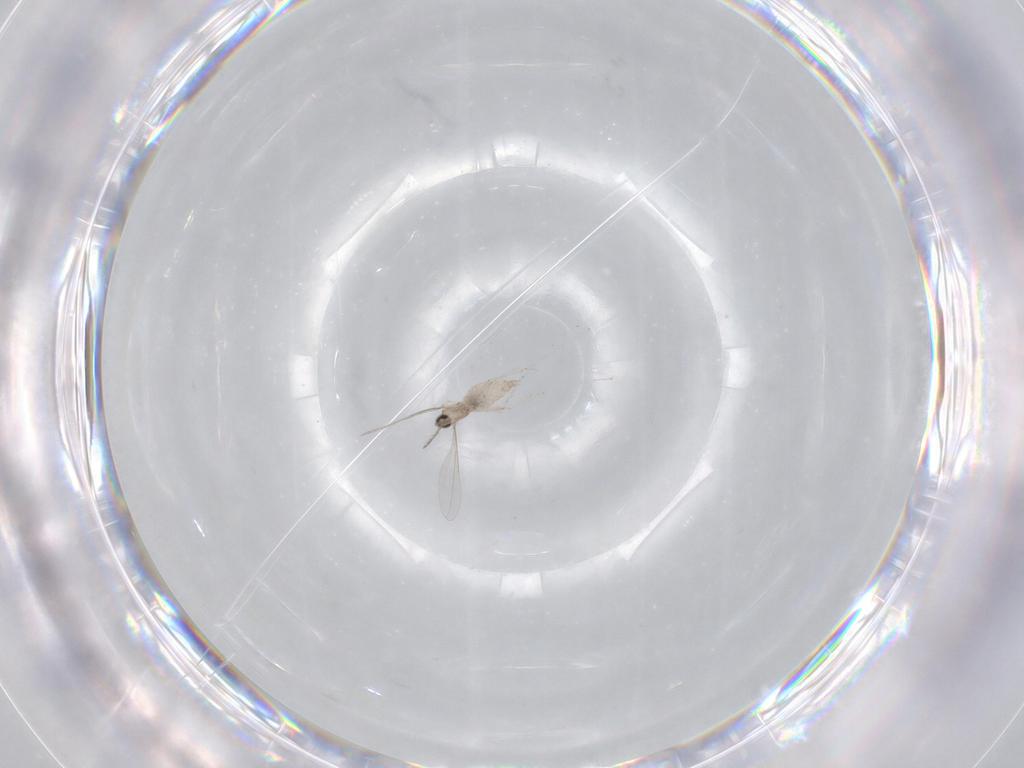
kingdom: Animalia
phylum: Arthropoda
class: Insecta
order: Diptera
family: Cecidomyiidae
